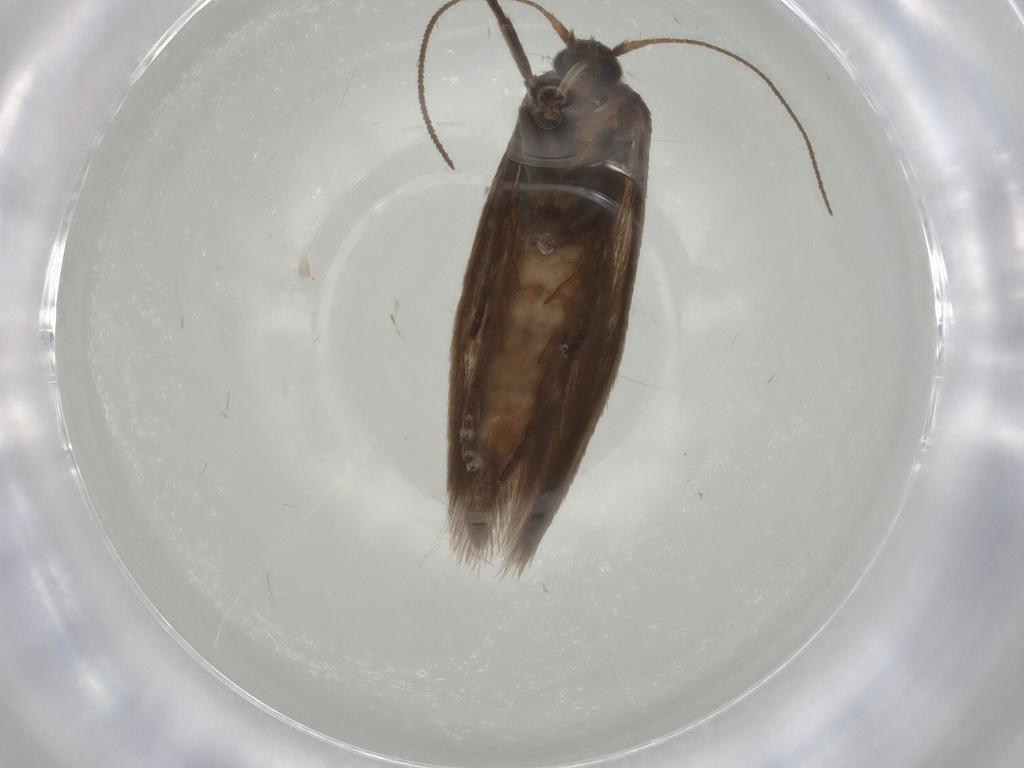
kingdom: Animalia
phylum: Arthropoda
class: Insecta
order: Lepidoptera
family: Limacodidae
